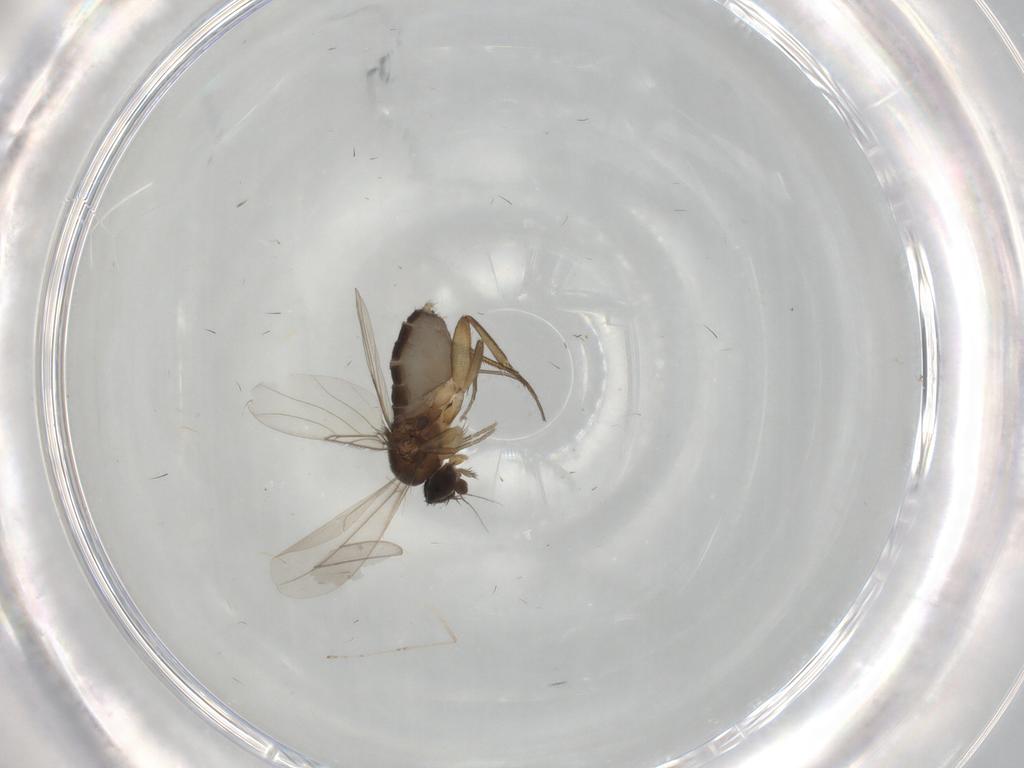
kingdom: Animalia
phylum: Arthropoda
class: Insecta
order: Diptera
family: Cecidomyiidae
